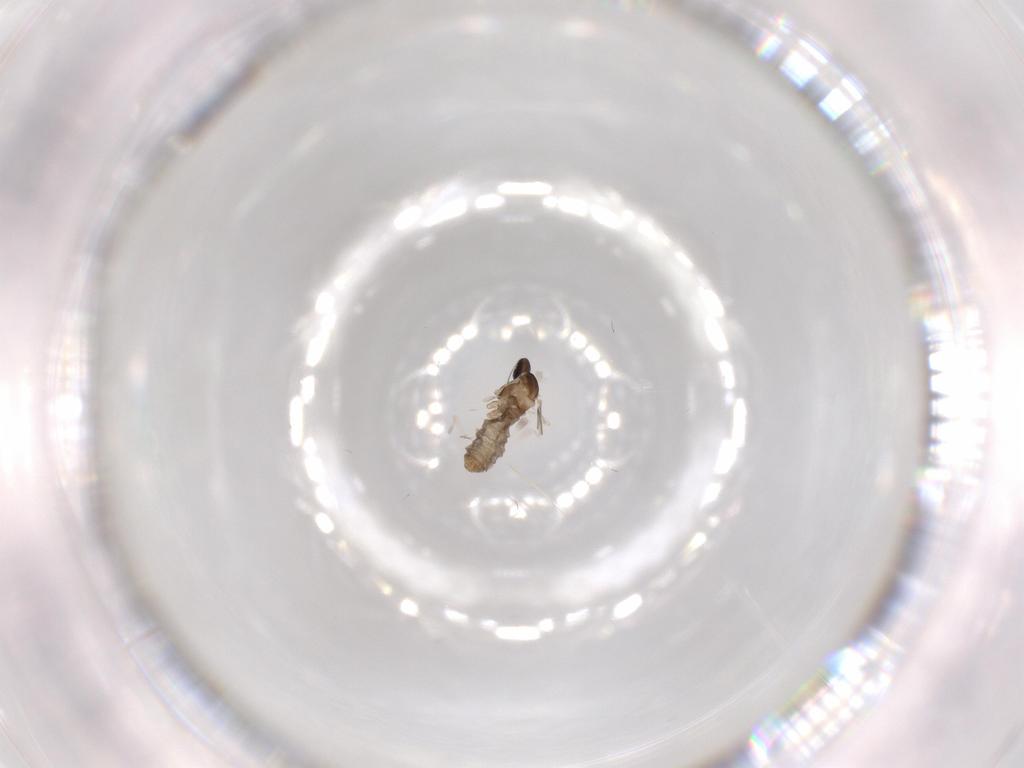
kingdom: Animalia
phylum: Arthropoda
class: Insecta
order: Diptera
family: Cecidomyiidae
